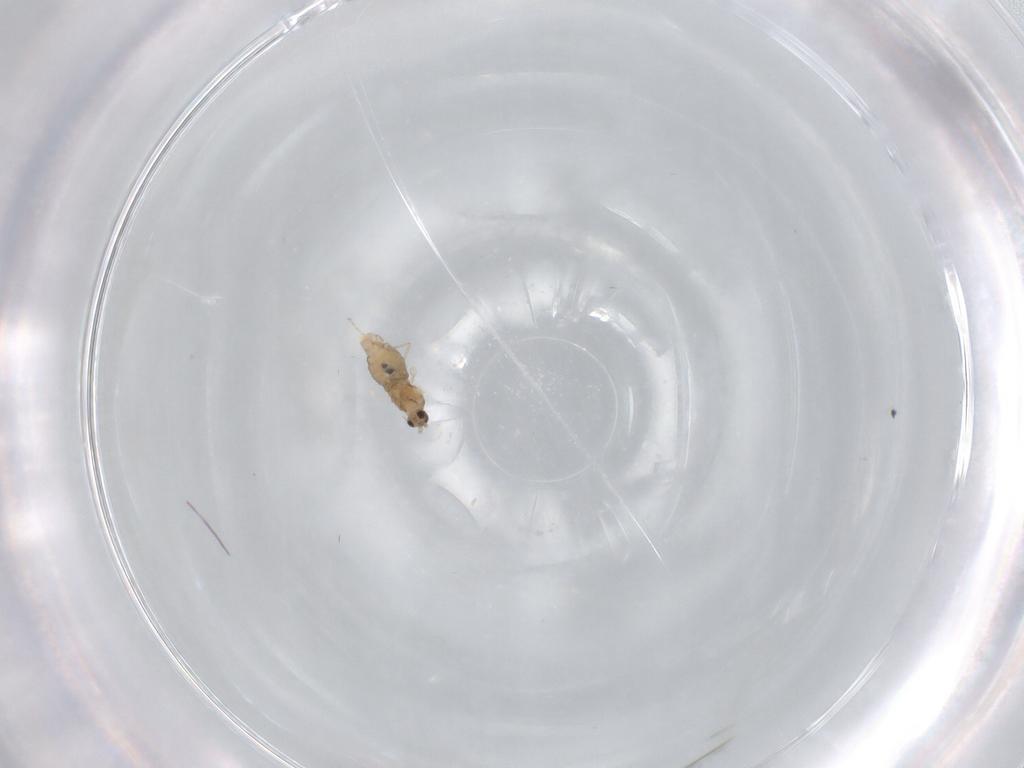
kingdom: Animalia
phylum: Arthropoda
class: Insecta
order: Diptera
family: Cecidomyiidae
